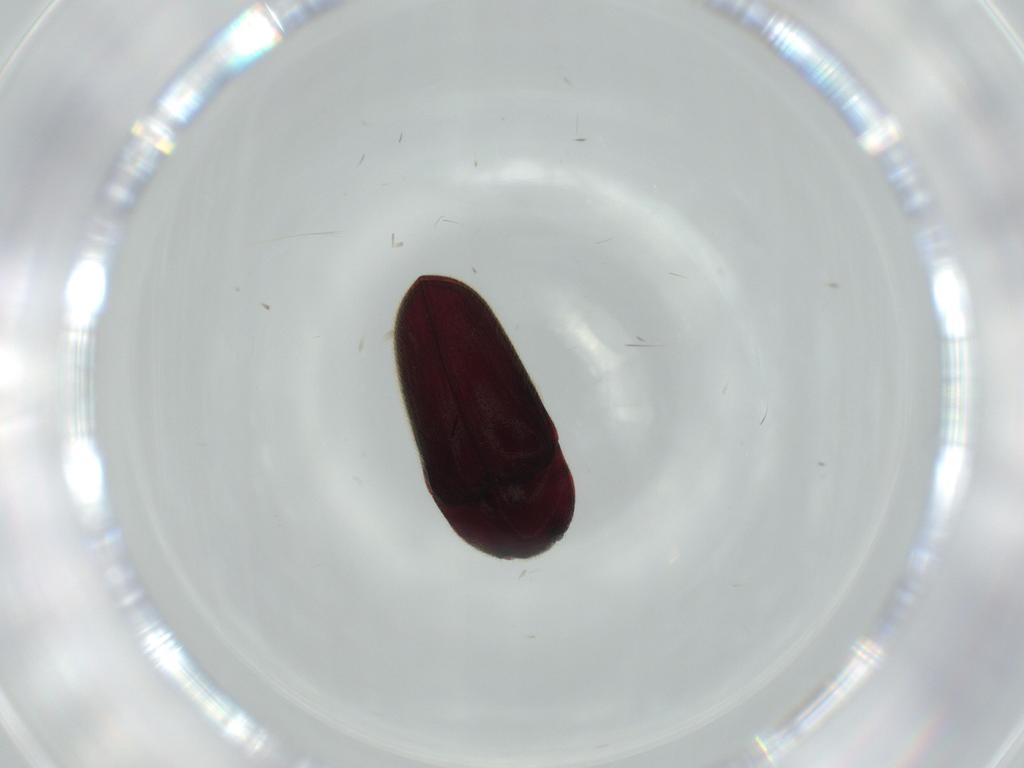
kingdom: Animalia
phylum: Arthropoda
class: Insecta
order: Coleoptera
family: Throscidae
